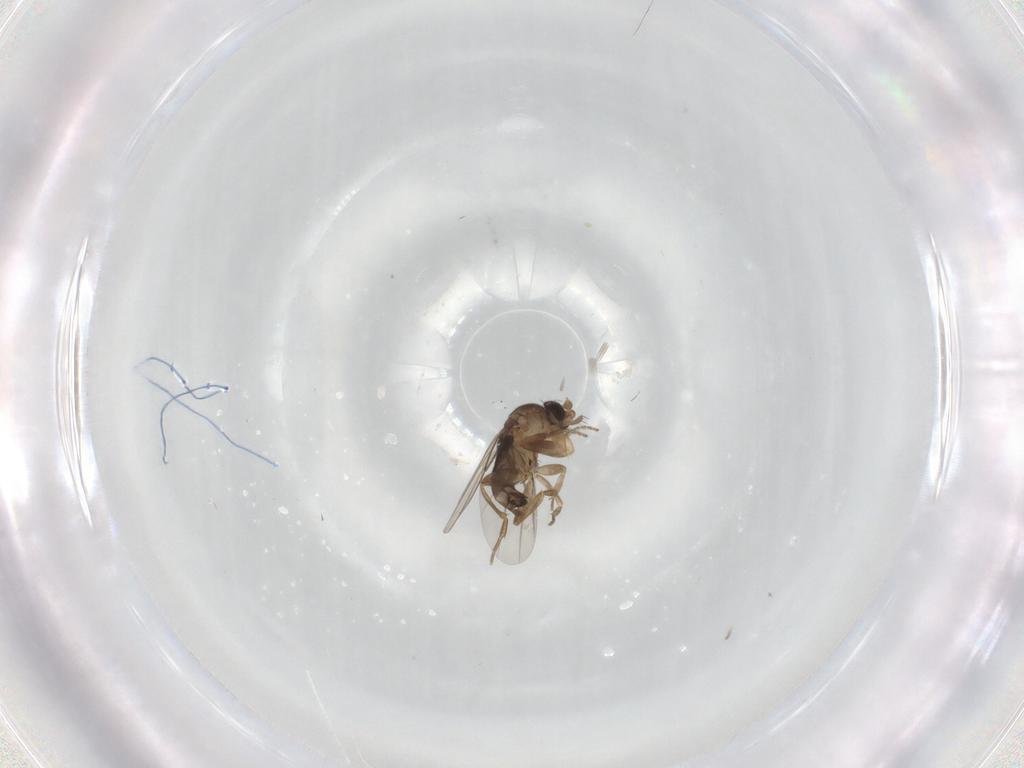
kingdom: Animalia
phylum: Arthropoda
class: Insecta
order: Diptera
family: Phoridae
